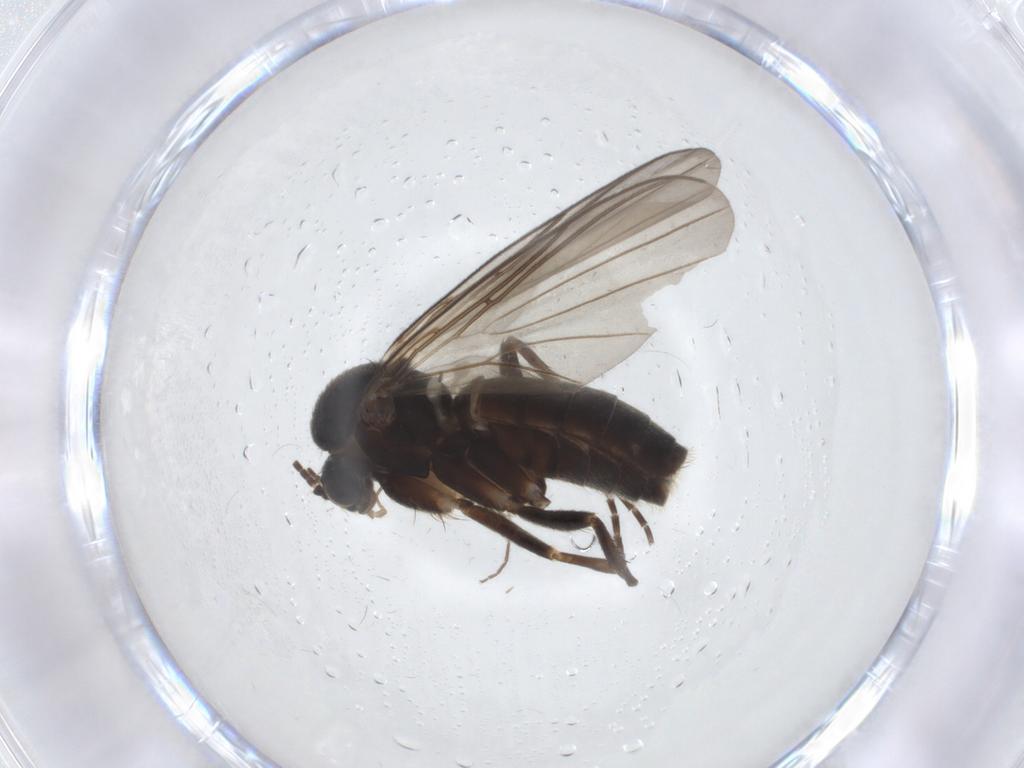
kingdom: Animalia
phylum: Arthropoda
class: Insecta
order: Diptera
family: Mycetophilidae
